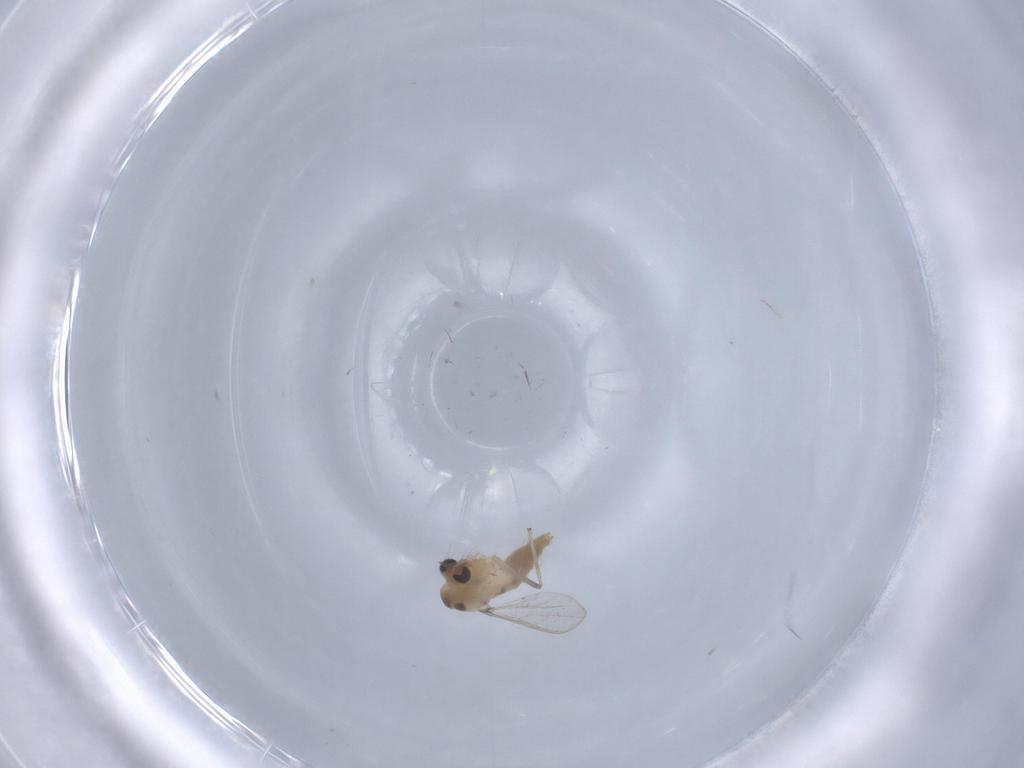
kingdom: Animalia
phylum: Arthropoda
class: Insecta
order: Diptera
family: Chironomidae
